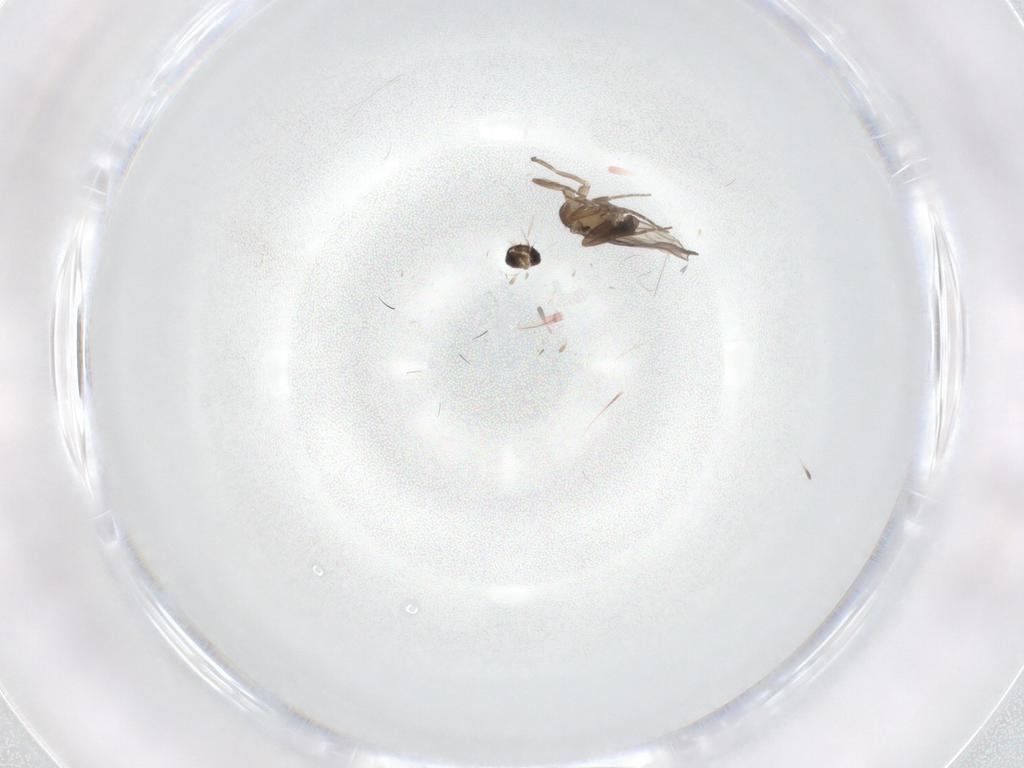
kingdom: Animalia
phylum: Arthropoda
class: Insecta
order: Diptera
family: Phoridae
